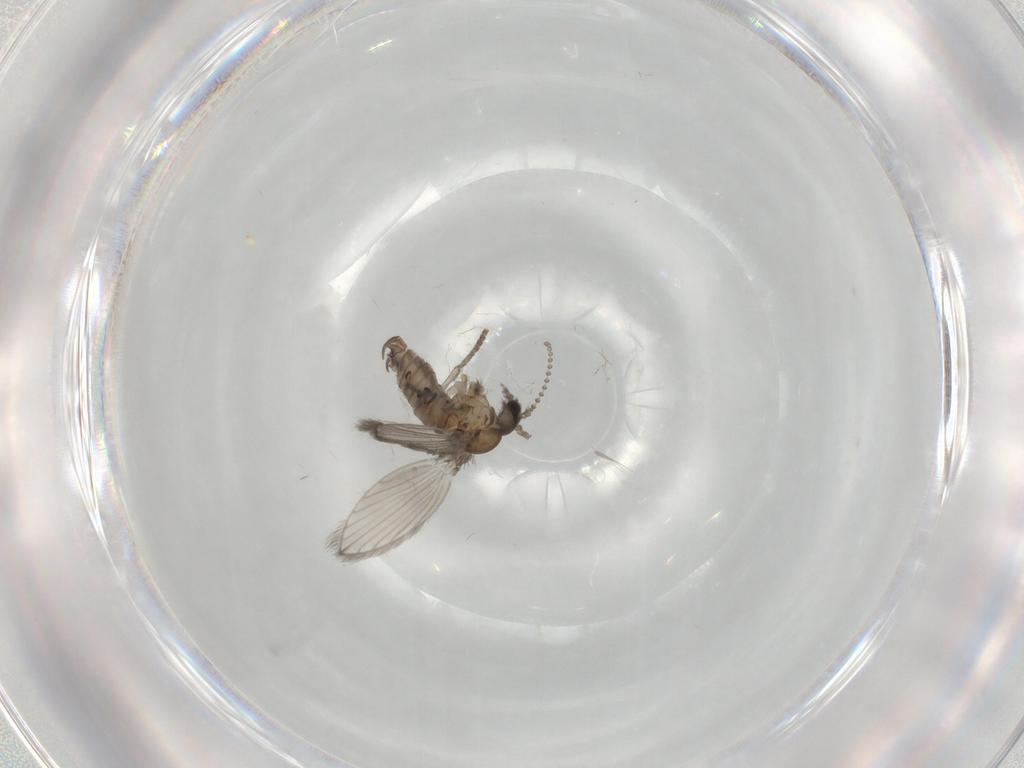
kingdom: Animalia
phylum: Arthropoda
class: Insecta
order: Diptera
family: Psychodidae
